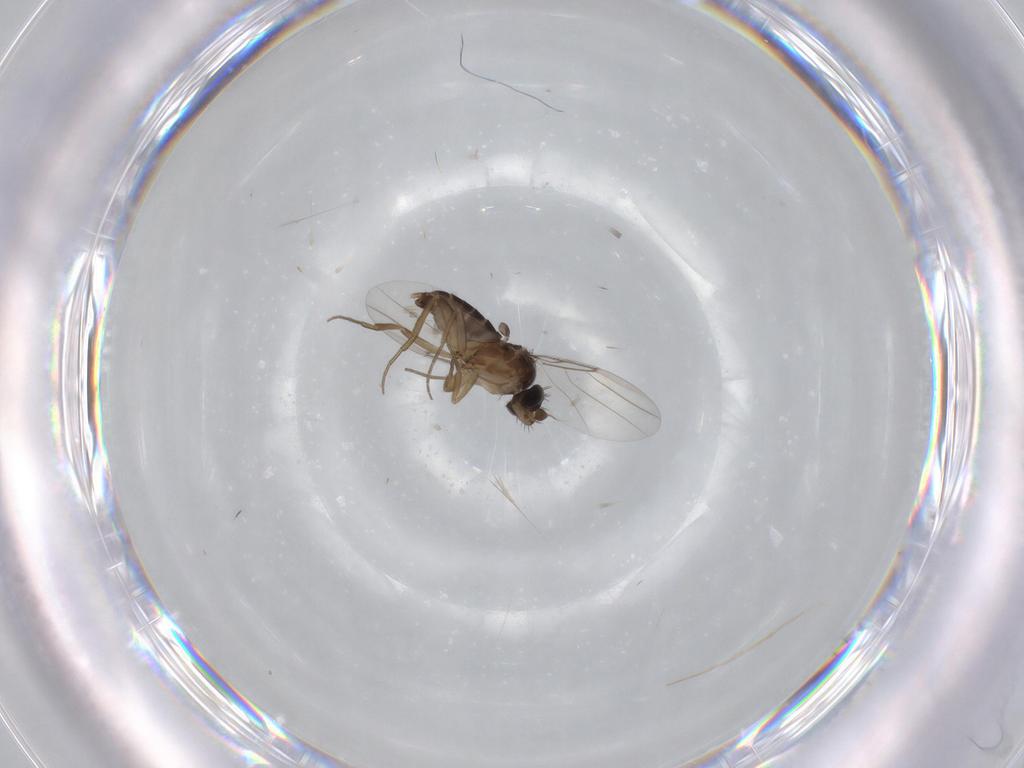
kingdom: Animalia
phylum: Arthropoda
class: Insecta
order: Diptera
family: Phoridae
